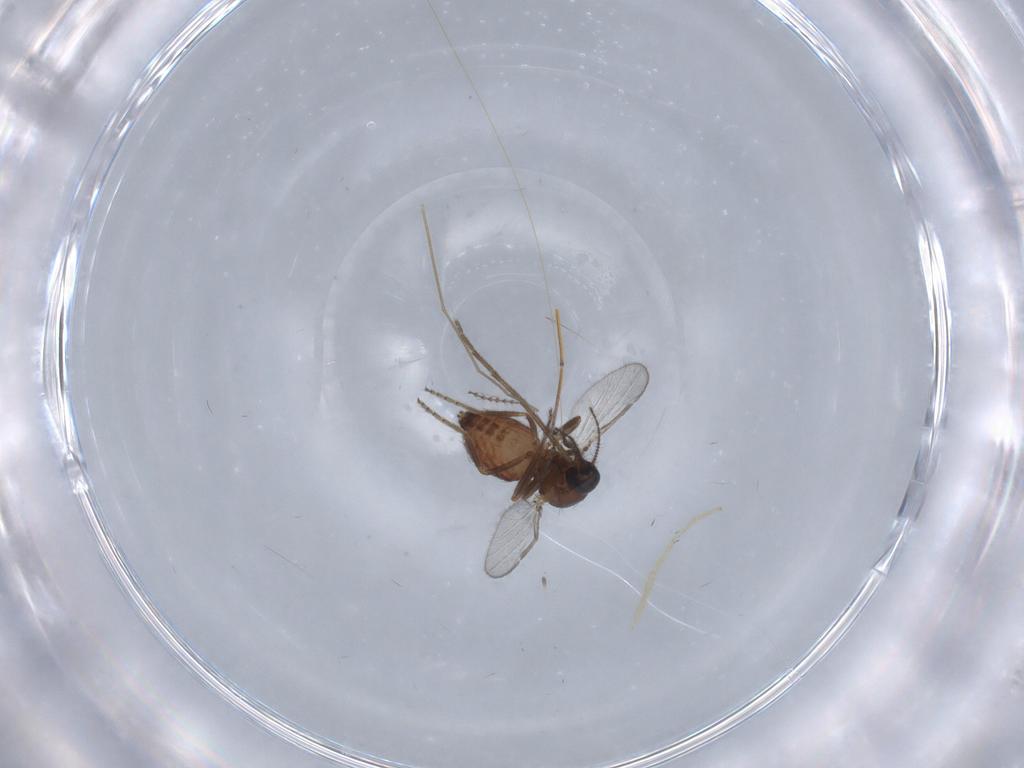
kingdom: Animalia
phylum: Arthropoda
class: Insecta
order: Diptera
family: Ceratopogonidae
